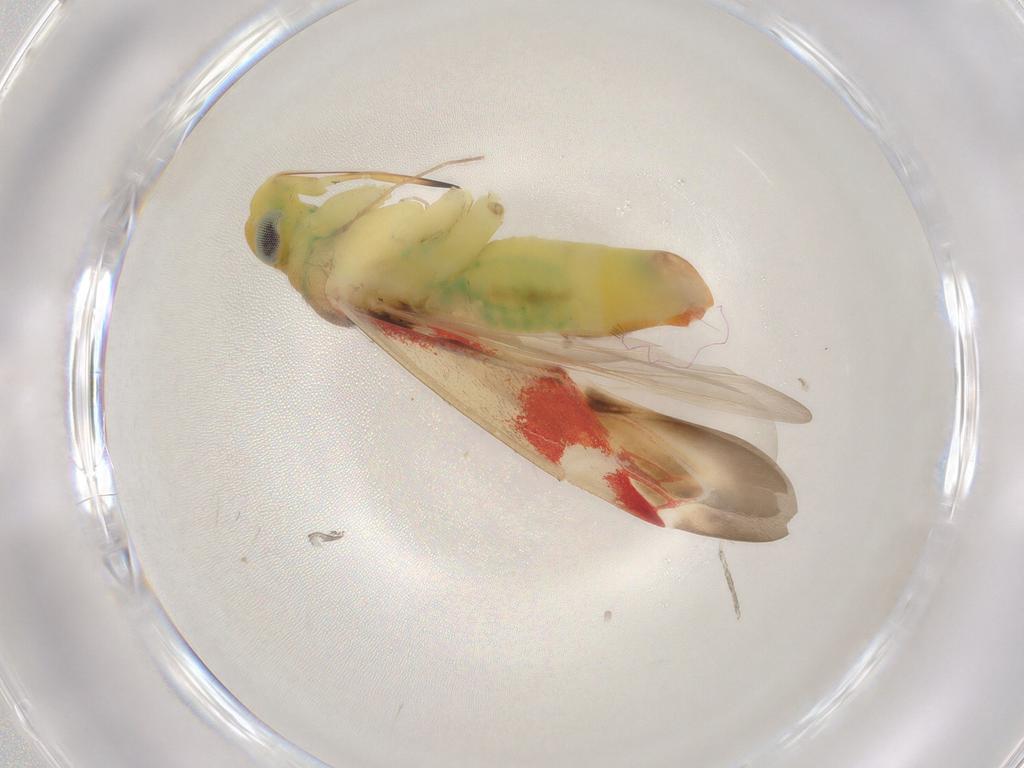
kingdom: Animalia
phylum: Arthropoda
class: Insecta
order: Hemiptera
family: Miridae
